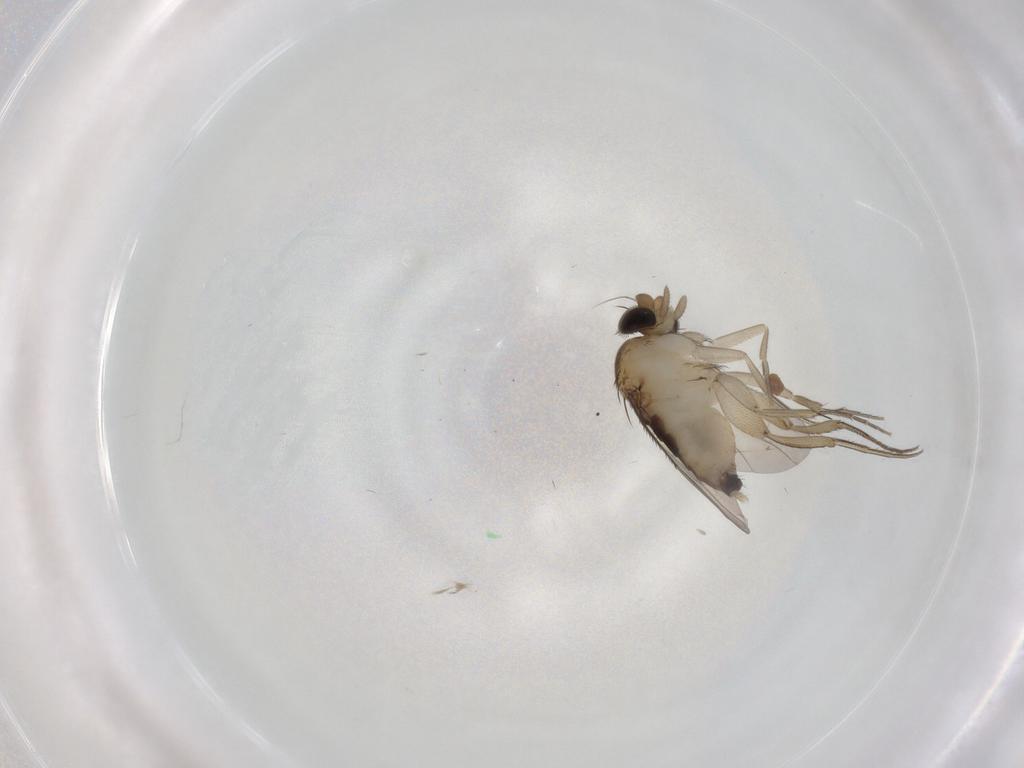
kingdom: Animalia
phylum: Arthropoda
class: Insecta
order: Diptera
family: Phoridae
